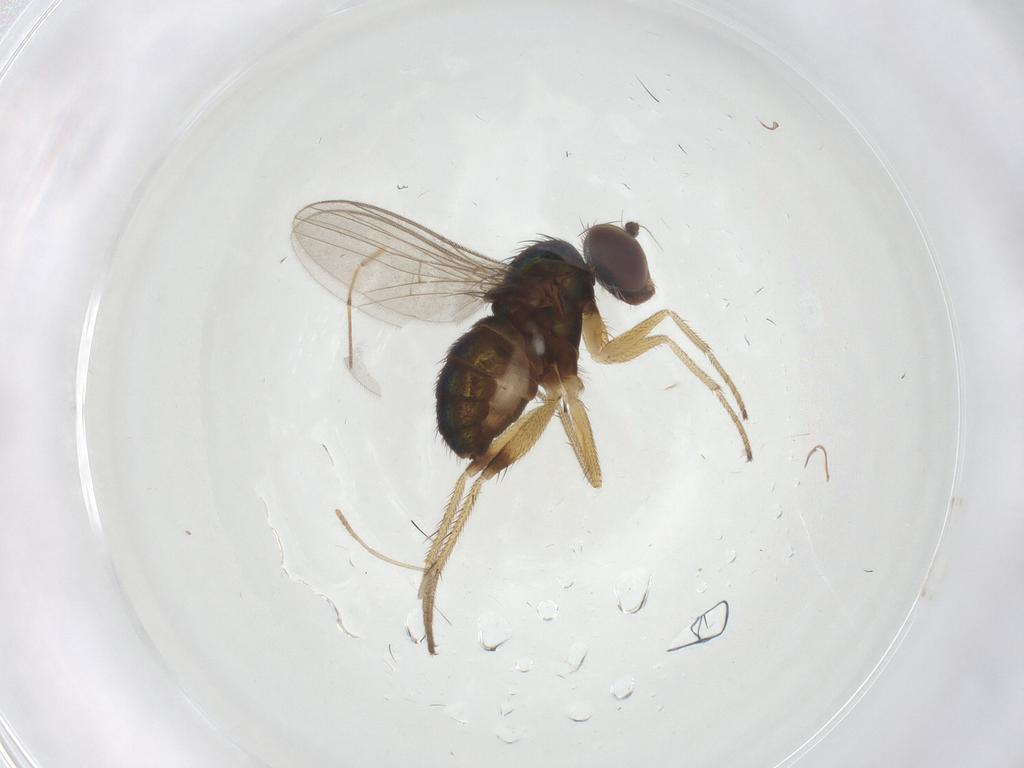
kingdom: Animalia
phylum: Arthropoda
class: Insecta
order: Diptera
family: Dolichopodidae
